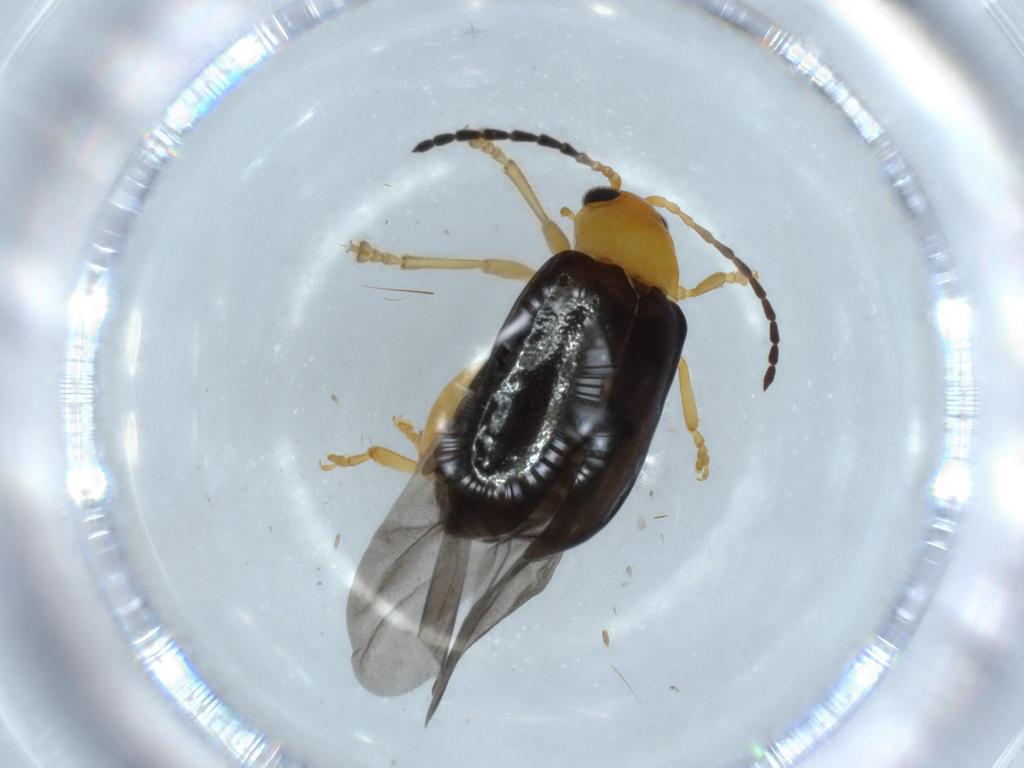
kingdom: Animalia
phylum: Arthropoda
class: Insecta
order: Coleoptera
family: Chrysomelidae
